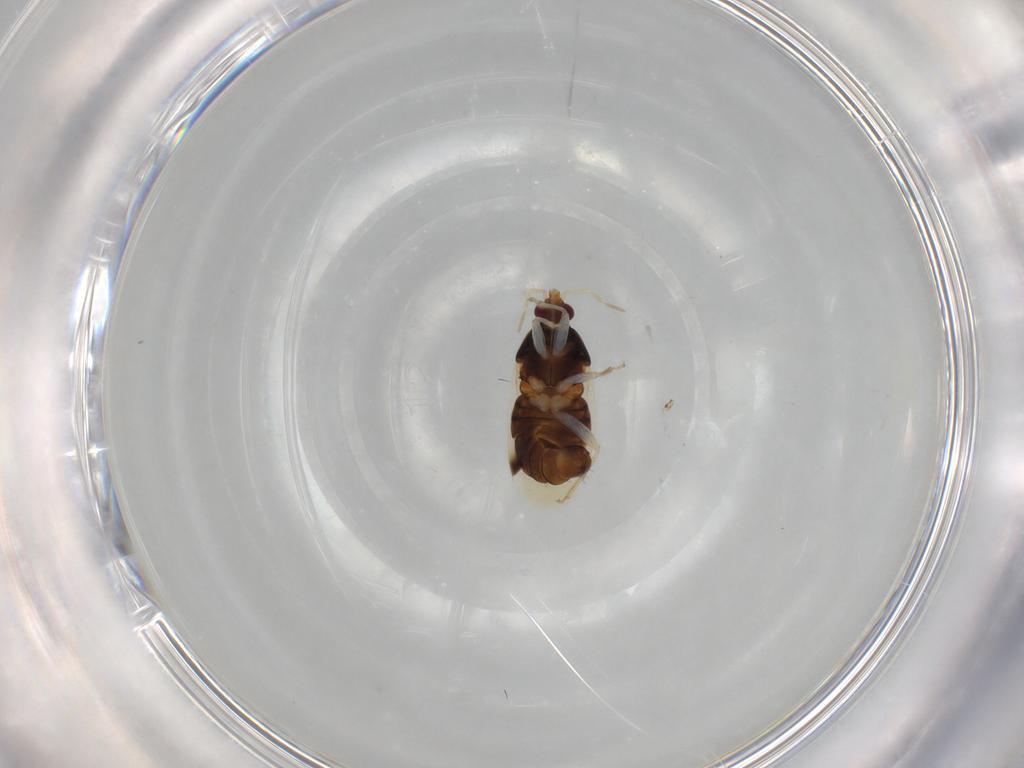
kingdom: Animalia
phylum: Arthropoda
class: Insecta
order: Hemiptera
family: Anthocoridae
